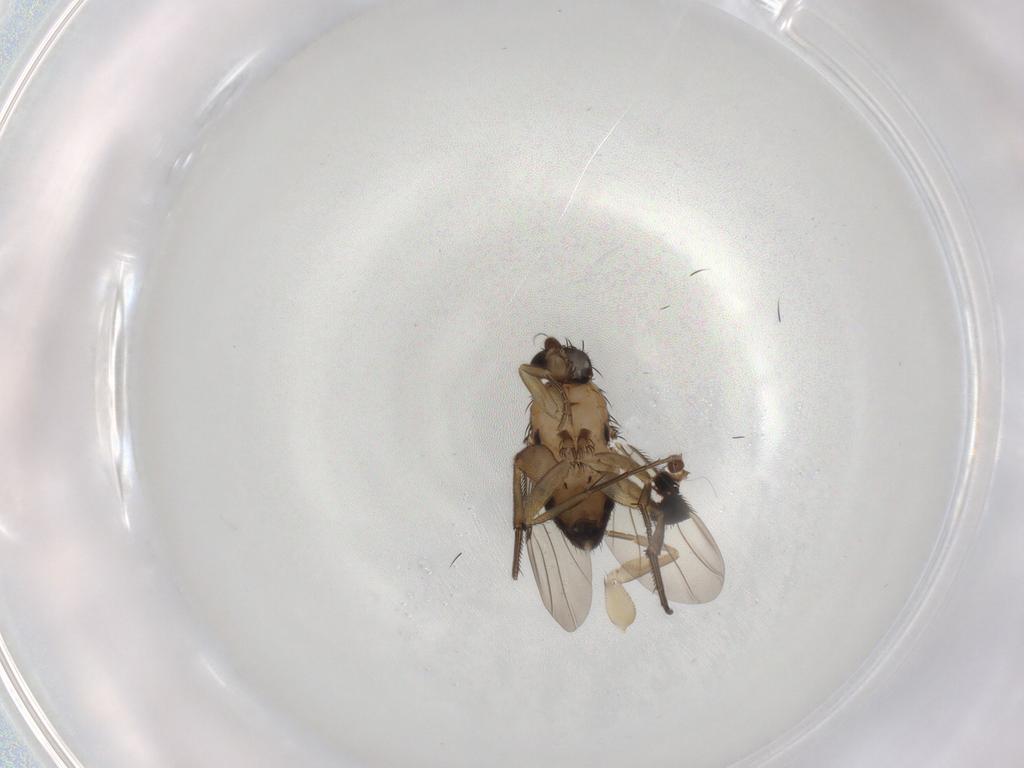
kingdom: Animalia
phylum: Arthropoda
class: Insecta
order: Diptera
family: Phoridae
